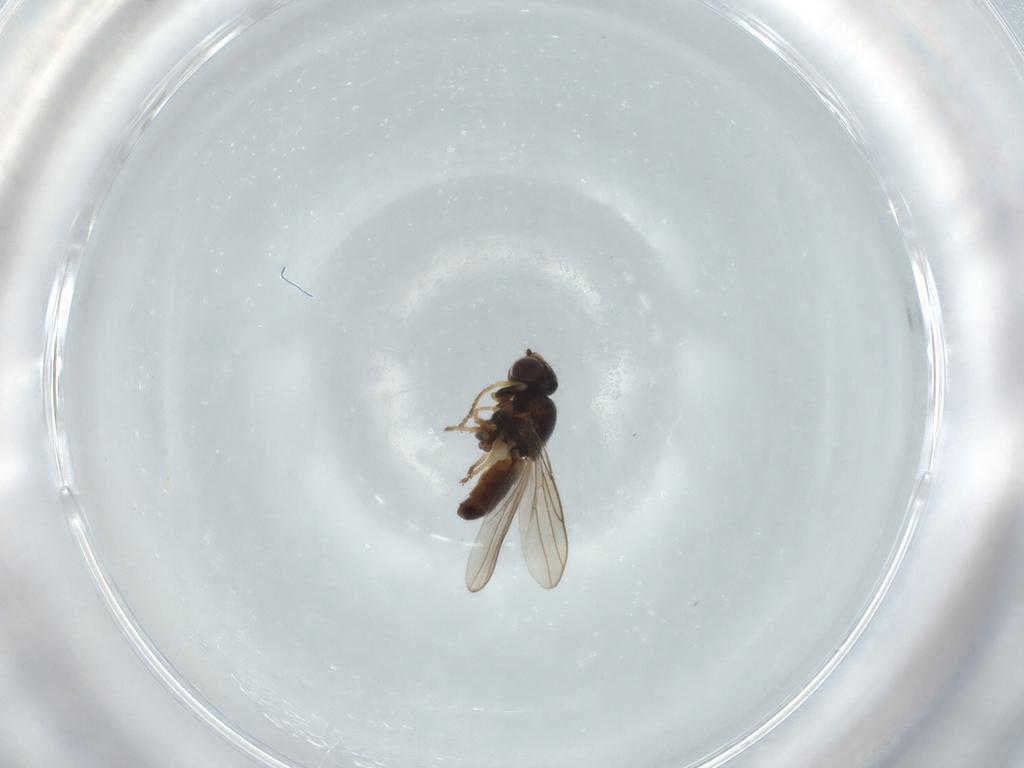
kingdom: Animalia
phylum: Arthropoda
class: Insecta
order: Diptera
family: Chloropidae
